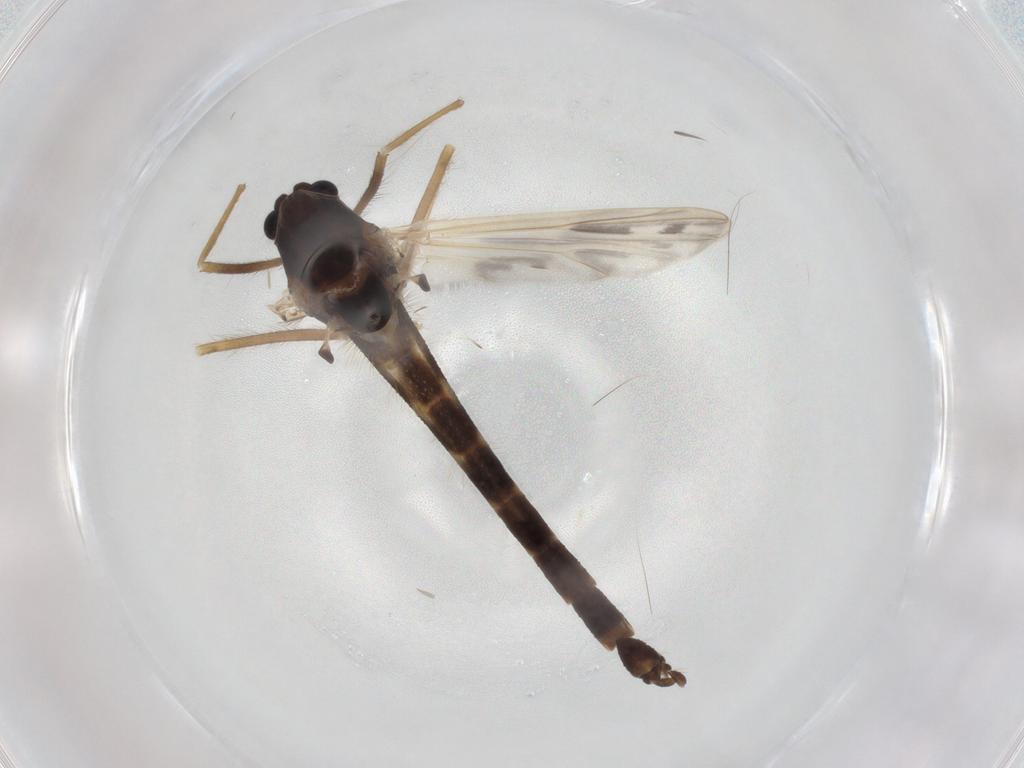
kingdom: Animalia
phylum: Arthropoda
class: Insecta
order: Diptera
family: Chironomidae
